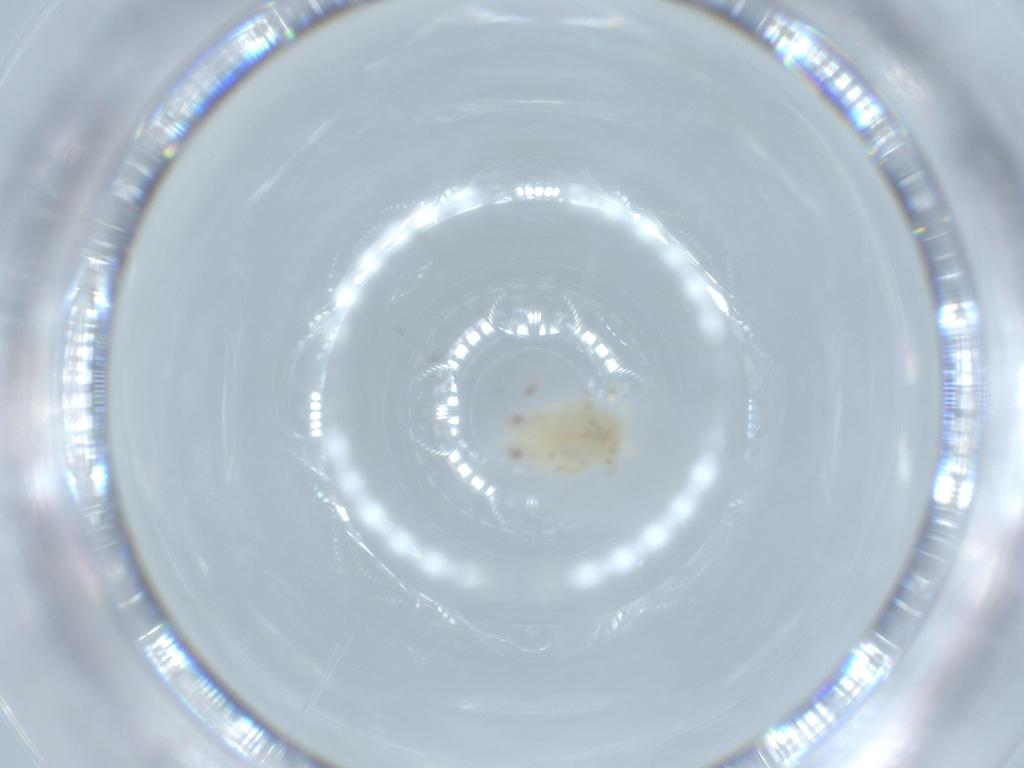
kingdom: Animalia
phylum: Arthropoda
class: Insecta
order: Hemiptera
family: Flatidae
